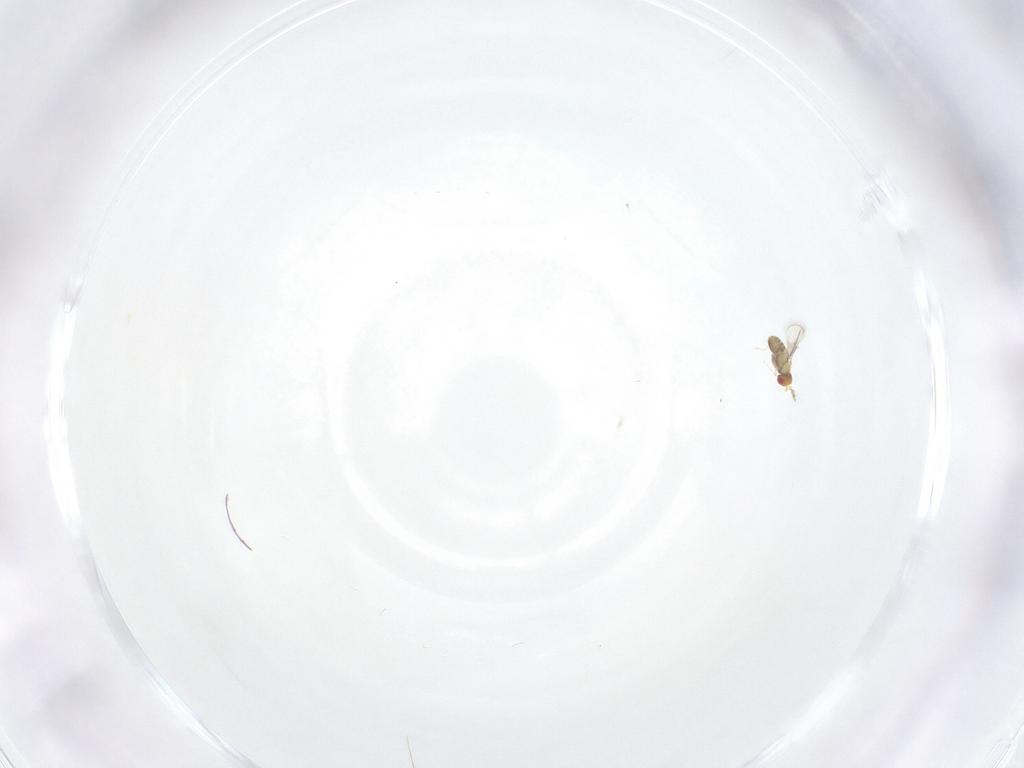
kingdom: Animalia
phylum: Arthropoda
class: Insecta
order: Hymenoptera
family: Trichogrammatidae
